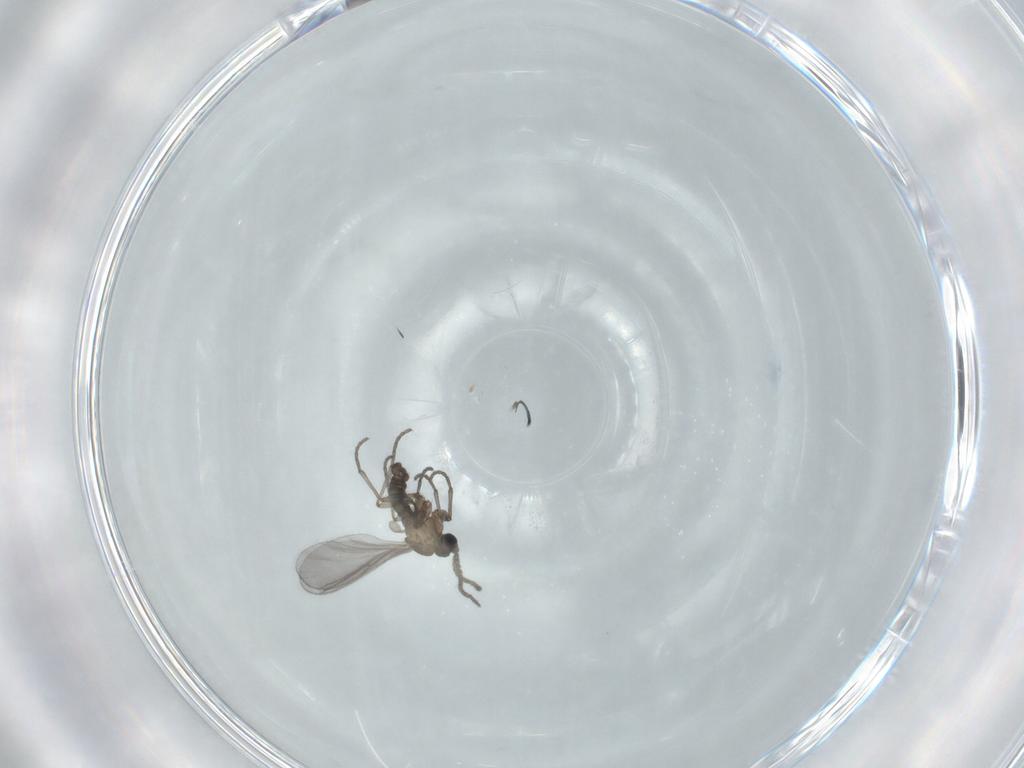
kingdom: Animalia
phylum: Arthropoda
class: Insecta
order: Diptera
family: Sciaridae
